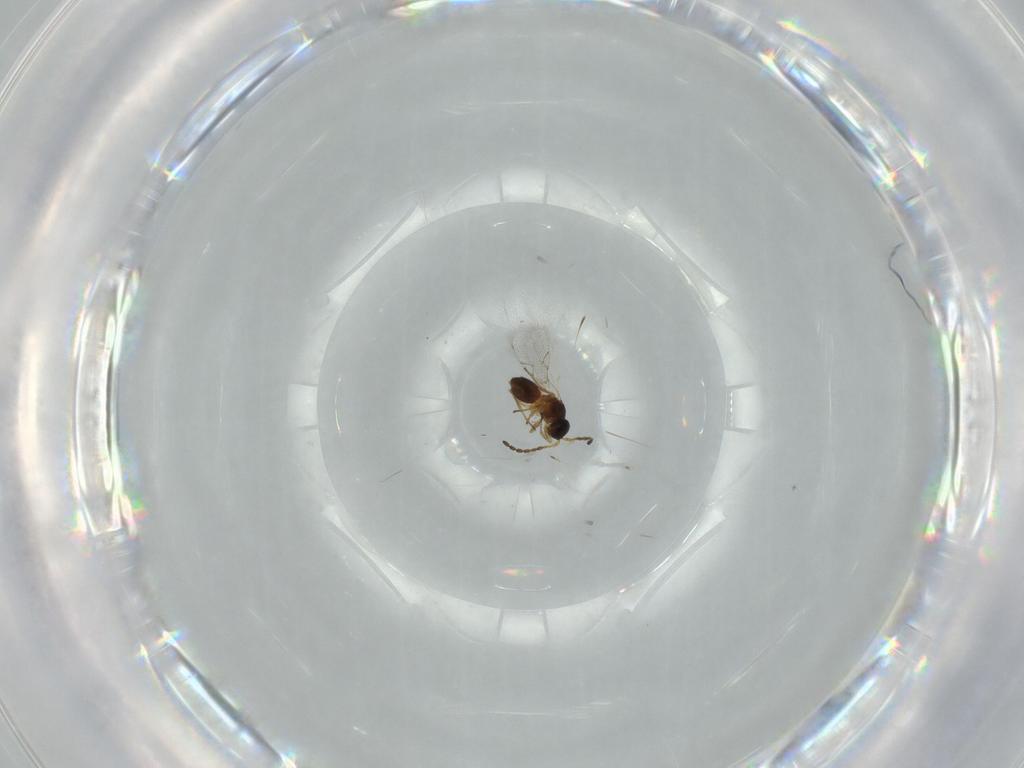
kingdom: Animalia
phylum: Arthropoda
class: Insecta
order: Hymenoptera
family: Figitidae
